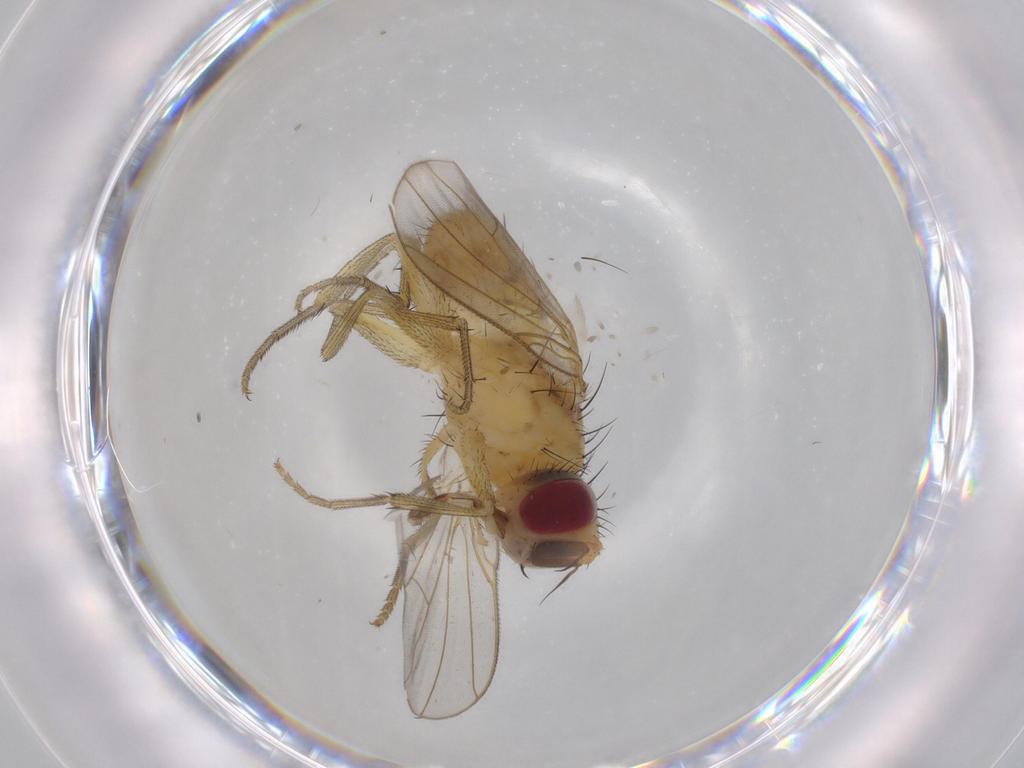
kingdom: Animalia
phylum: Arthropoda
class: Insecta
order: Diptera
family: Muscidae
